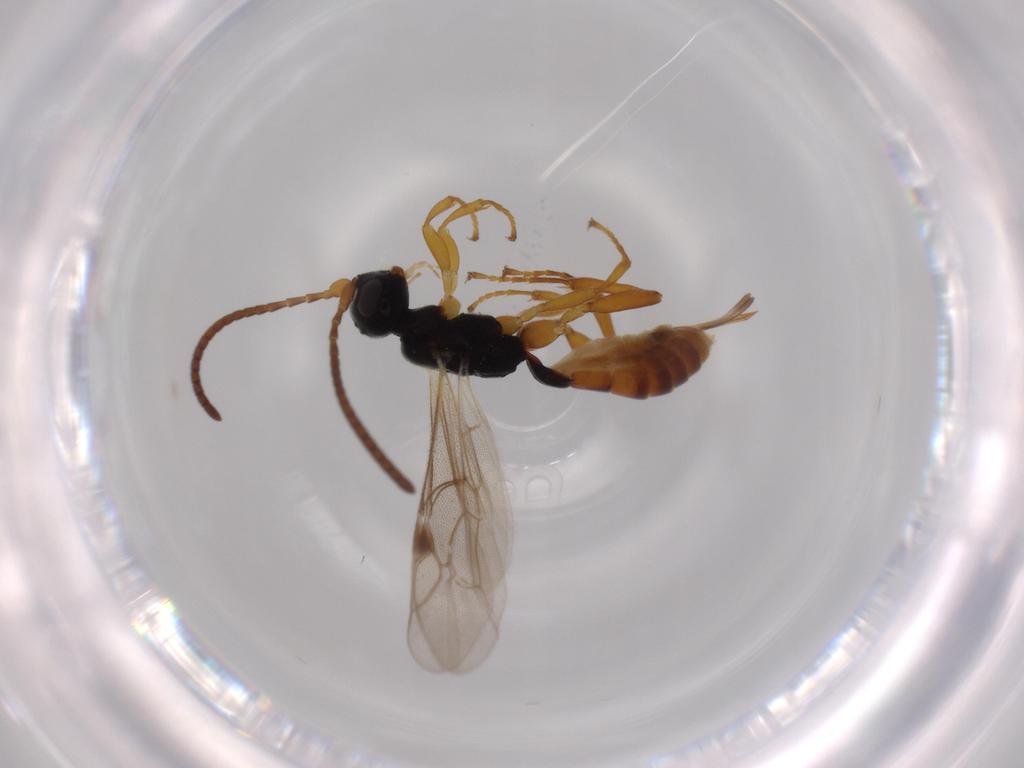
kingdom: Animalia
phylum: Arthropoda
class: Insecta
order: Hymenoptera
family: Ichneumonidae
